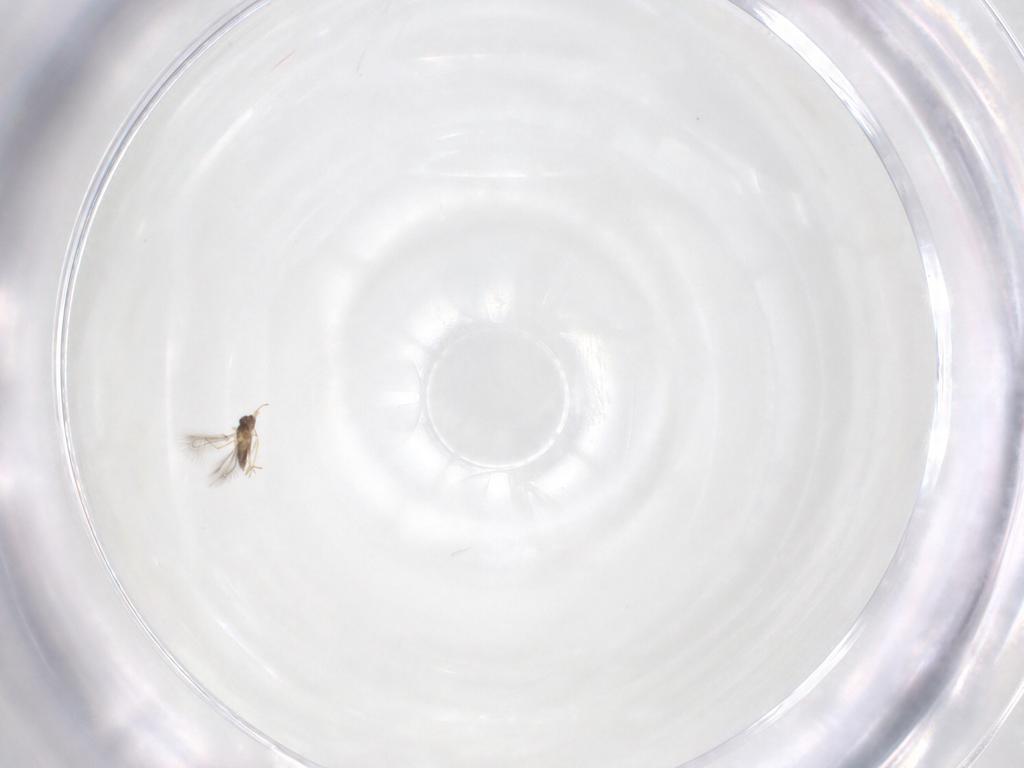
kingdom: Animalia
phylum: Arthropoda
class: Insecta
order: Hymenoptera
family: Mymaridae
